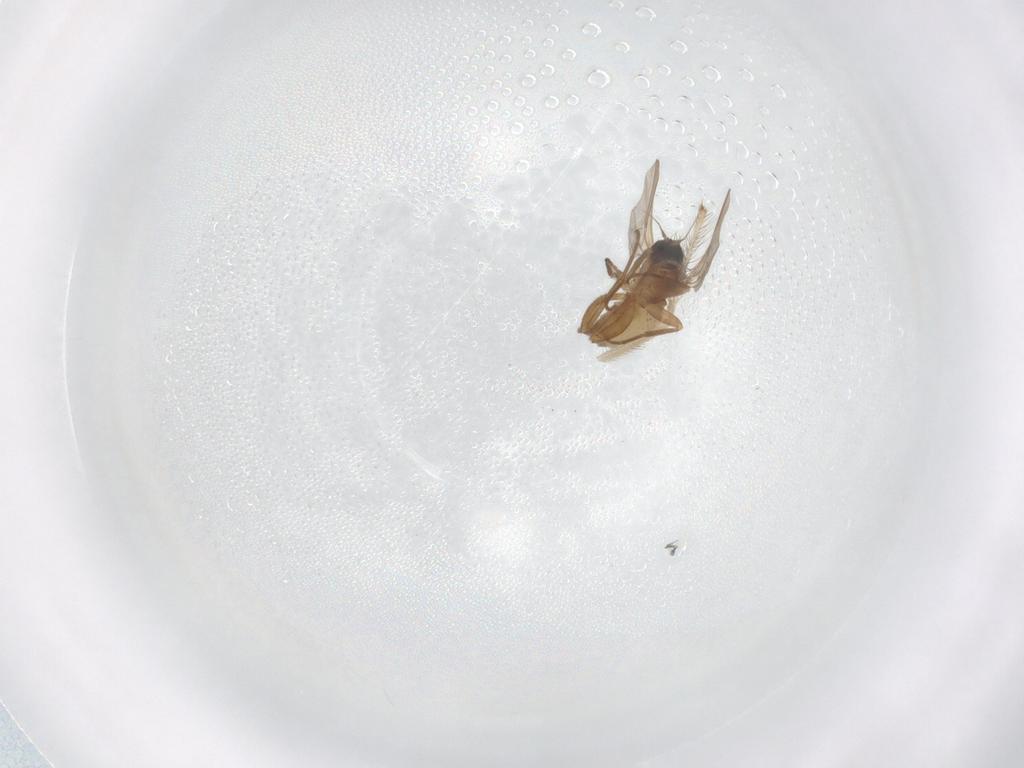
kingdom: Animalia
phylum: Arthropoda
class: Insecta
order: Diptera
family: Hybotidae
